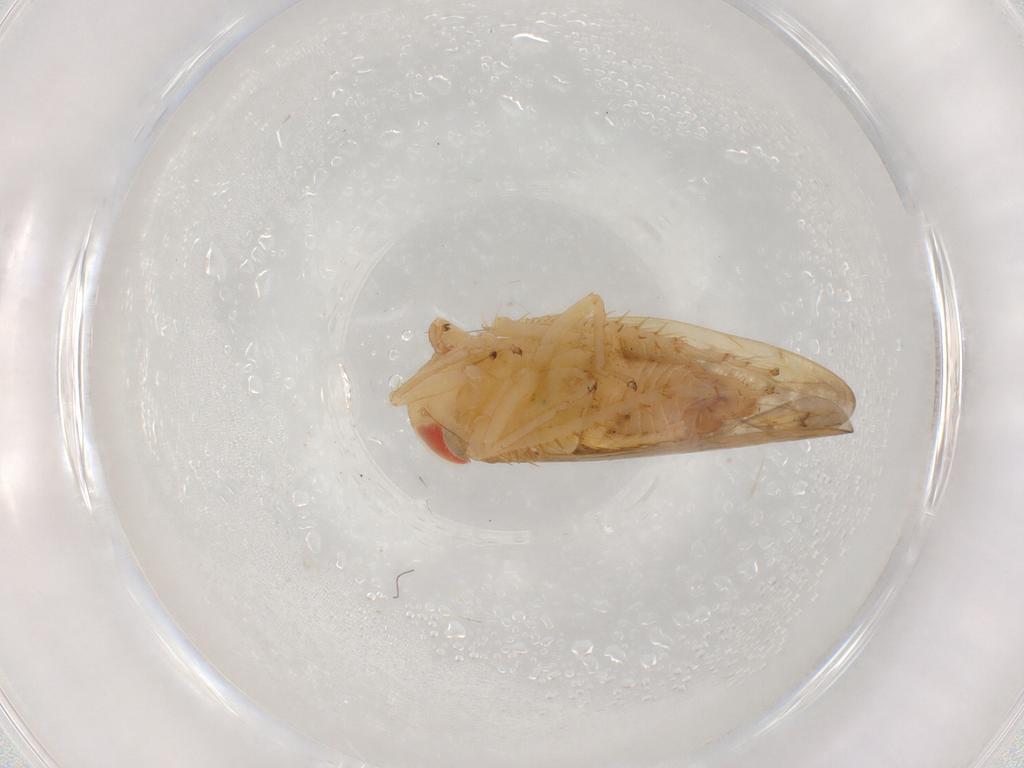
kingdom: Animalia
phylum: Arthropoda
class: Insecta
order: Hemiptera
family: Cicadellidae
